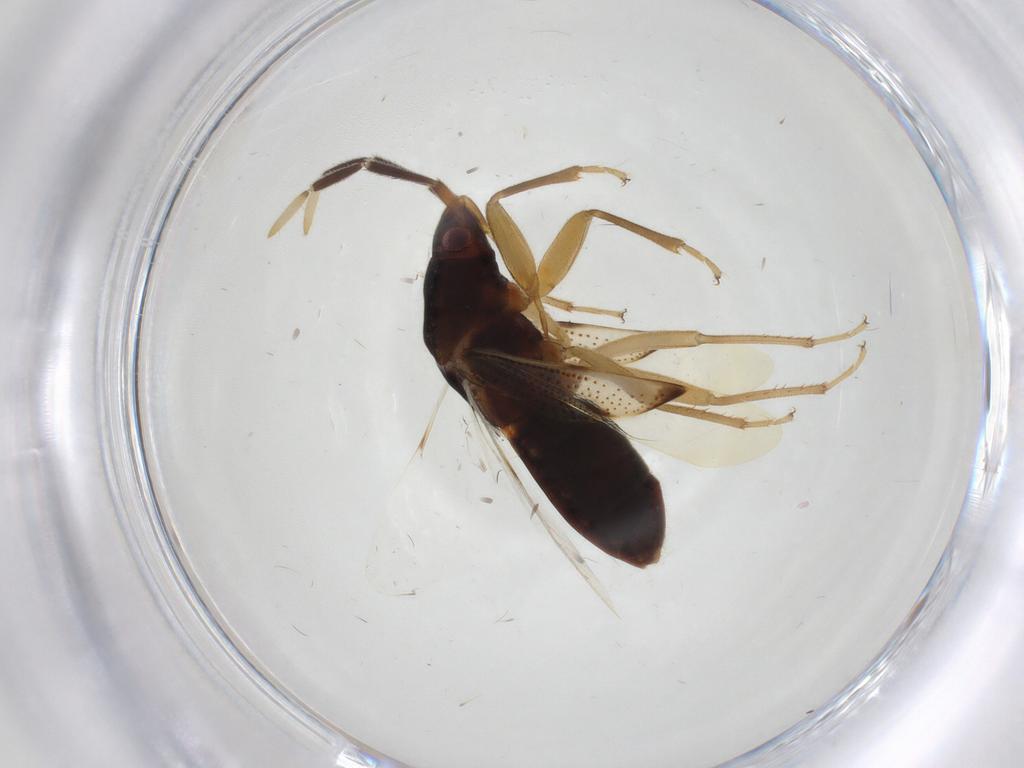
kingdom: Animalia
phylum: Arthropoda
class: Insecta
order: Hemiptera
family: Rhyparochromidae
